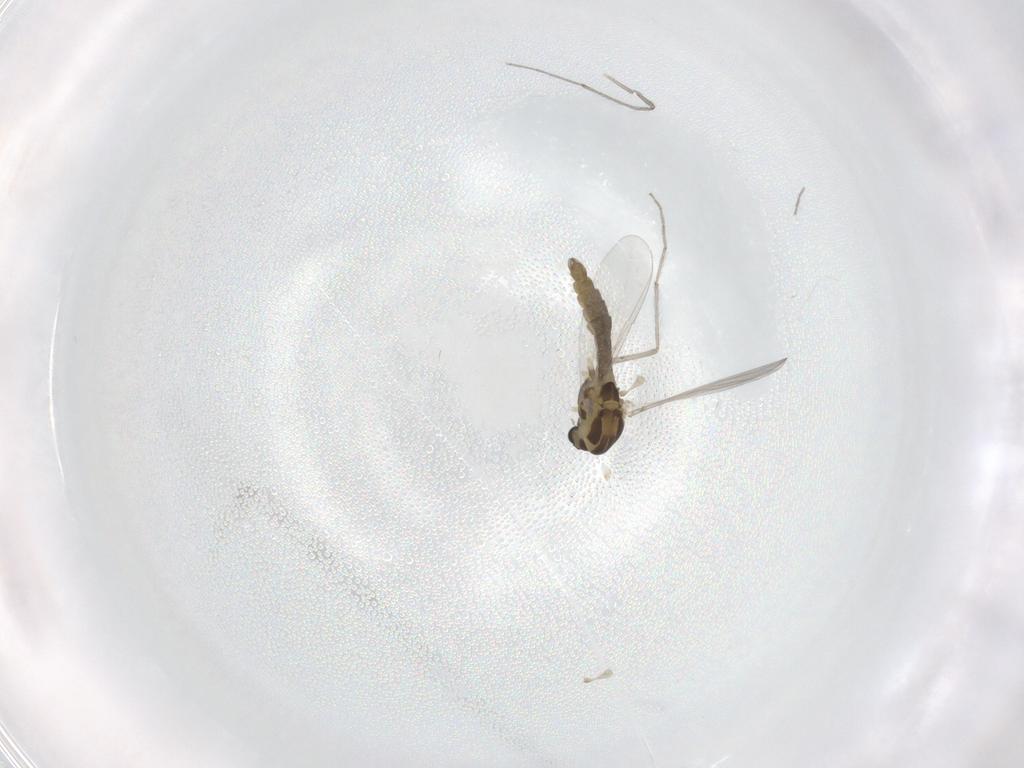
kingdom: Animalia
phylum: Arthropoda
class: Insecta
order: Diptera
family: Chironomidae
